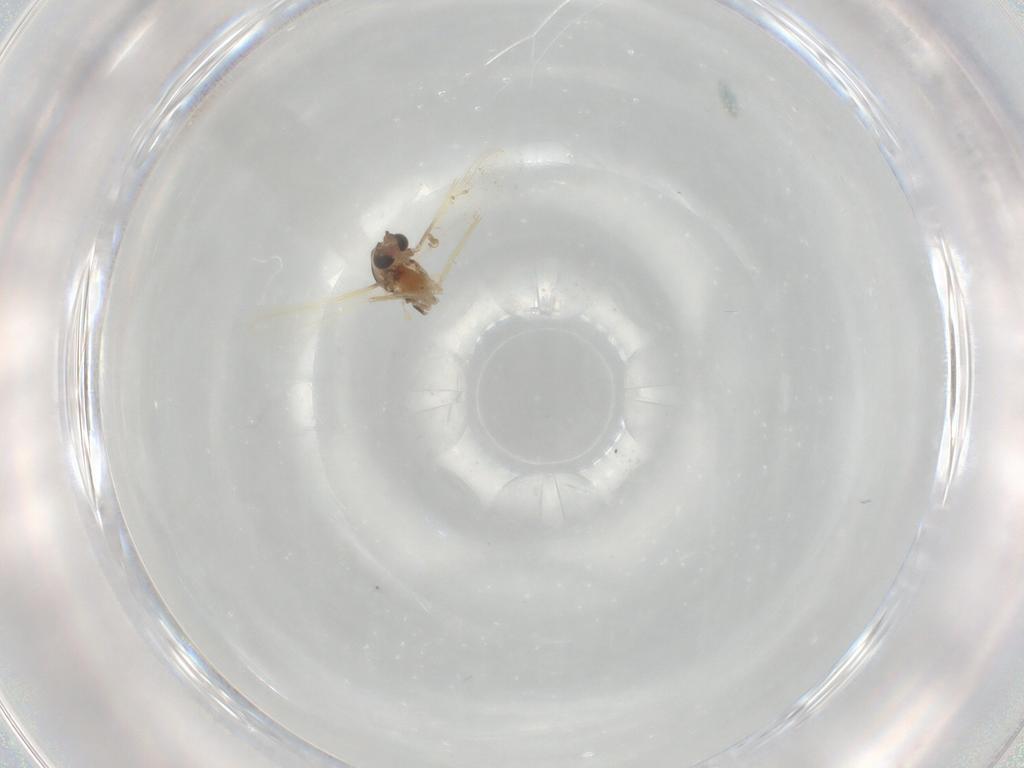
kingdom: Animalia
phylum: Arthropoda
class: Insecta
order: Diptera
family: Chironomidae
